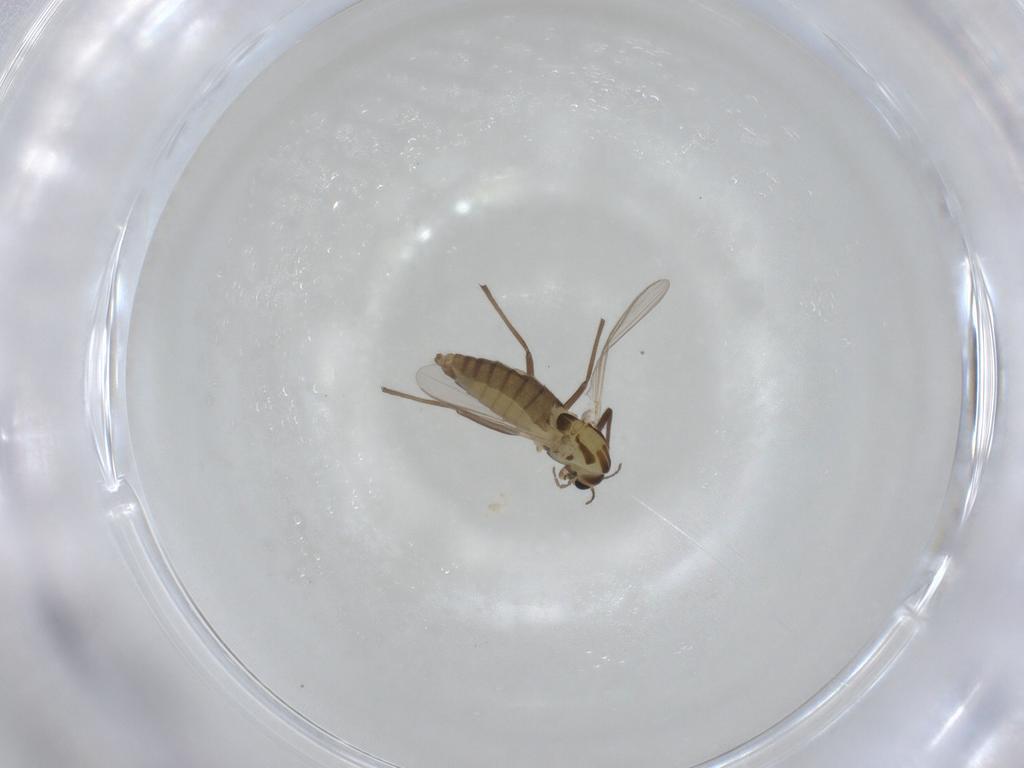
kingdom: Animalia
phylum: Arthropoda
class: Insecta
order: Diptera
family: Chironomidae
